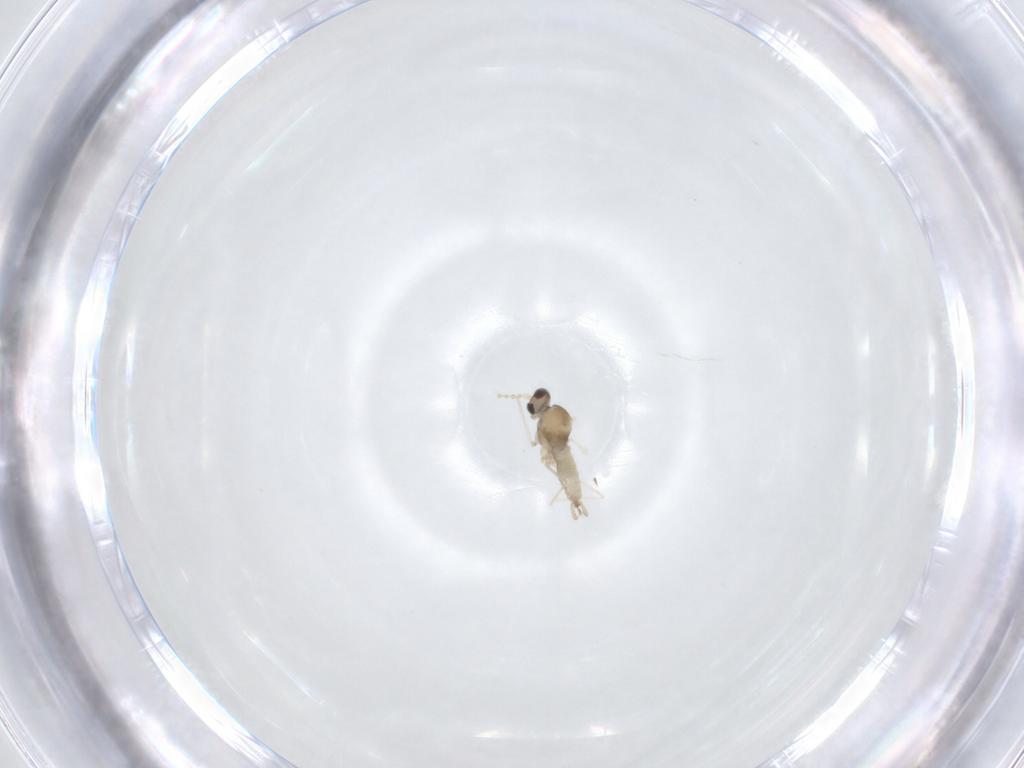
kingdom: Animalia
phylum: Arthropoda
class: Insecta
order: Diptera
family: Cecidomyiidae
